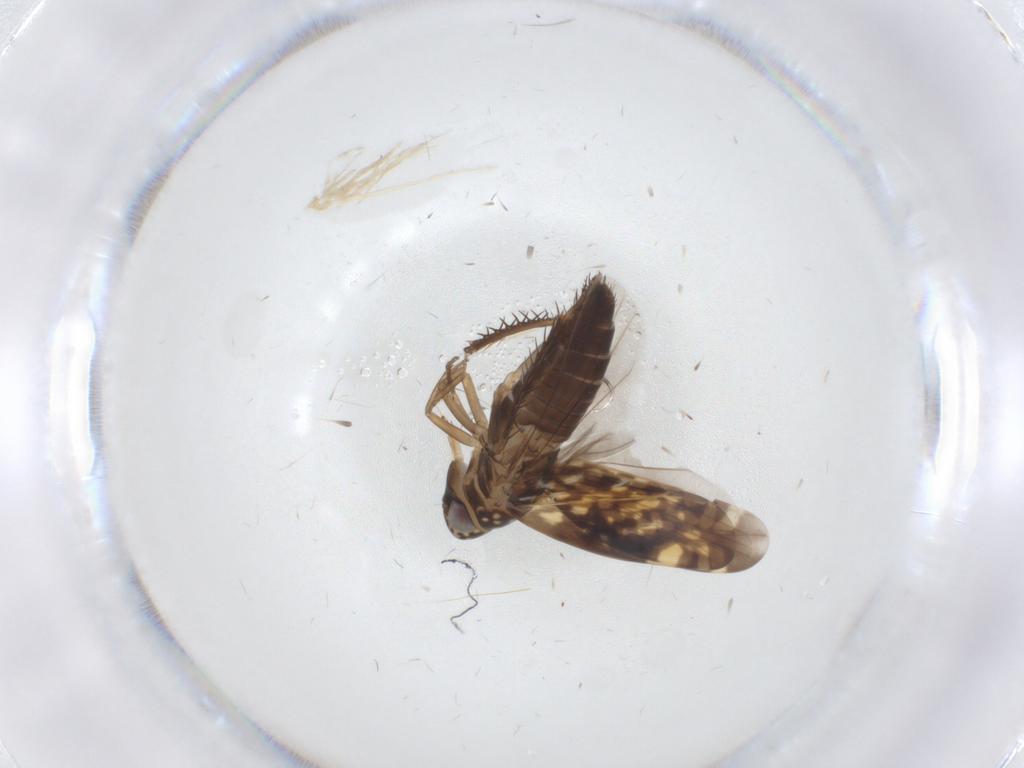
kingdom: Animalia
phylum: Arthropoda
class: Insecta
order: Hemiptera
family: Cicadellidae
